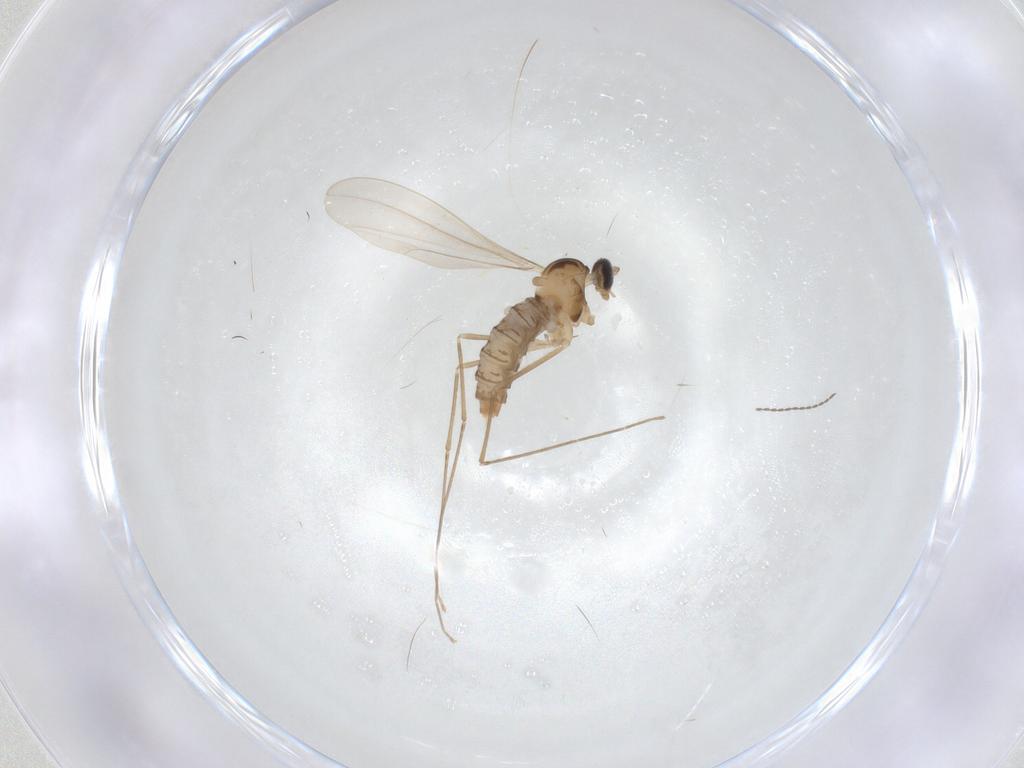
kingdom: Animalia
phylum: Arthropoda
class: Insecta
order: Diptera
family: Cecidomyiidae
